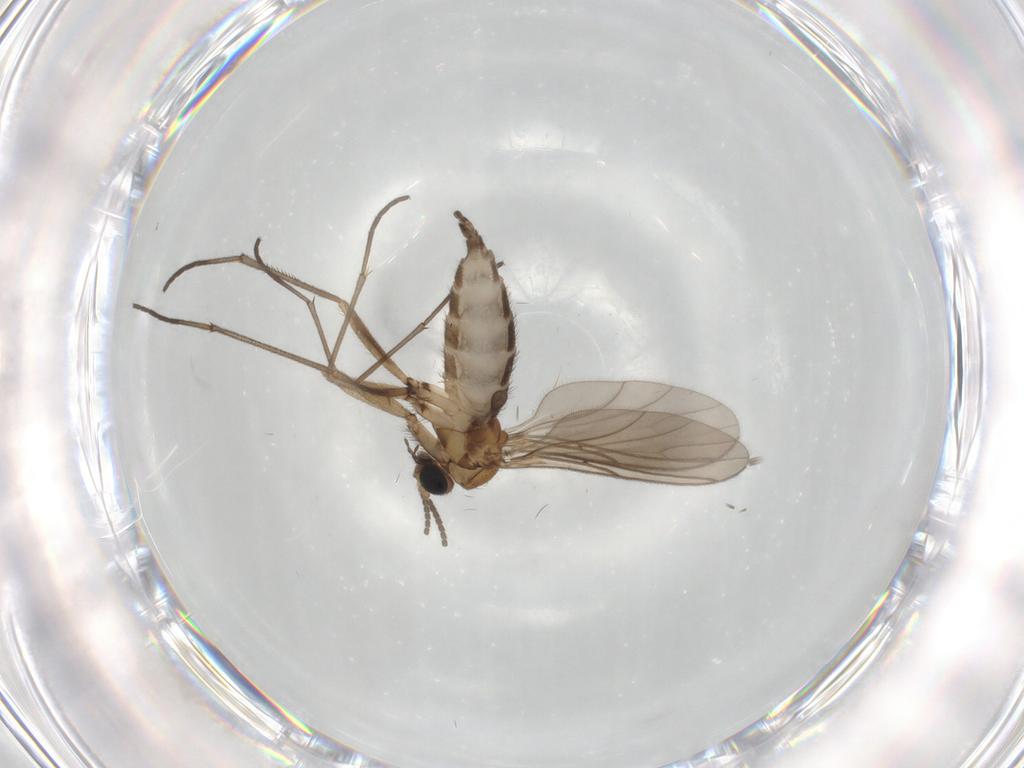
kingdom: Animalia
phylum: Arthropoda
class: Insecta
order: Diptera
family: Sciaridae
